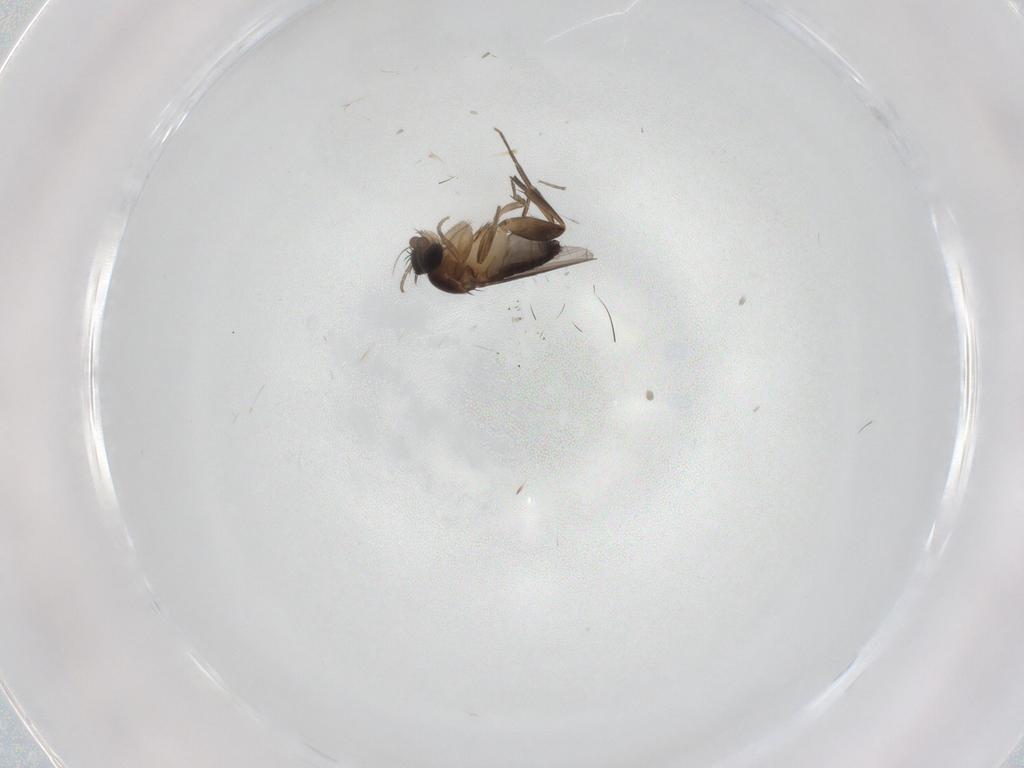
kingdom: Animalia
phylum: Arthropoda
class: Insecta
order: Diptera
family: Phoridae
